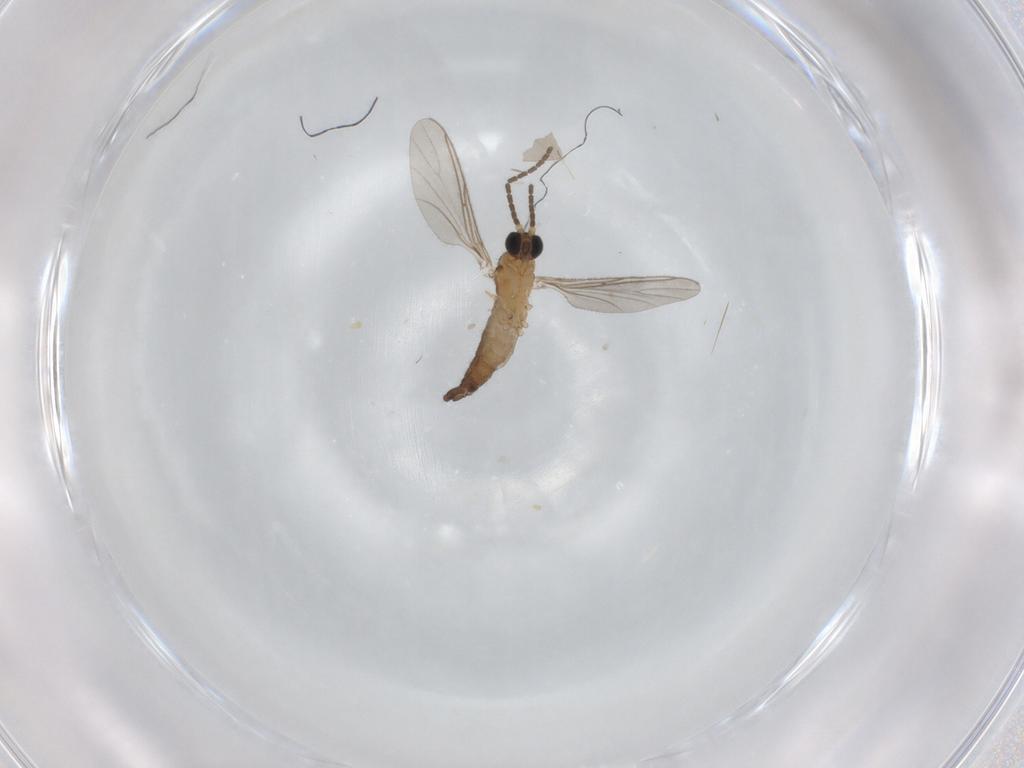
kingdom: Animalia
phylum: Arthropoda
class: Insecta
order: Diptera
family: Sciaridae
